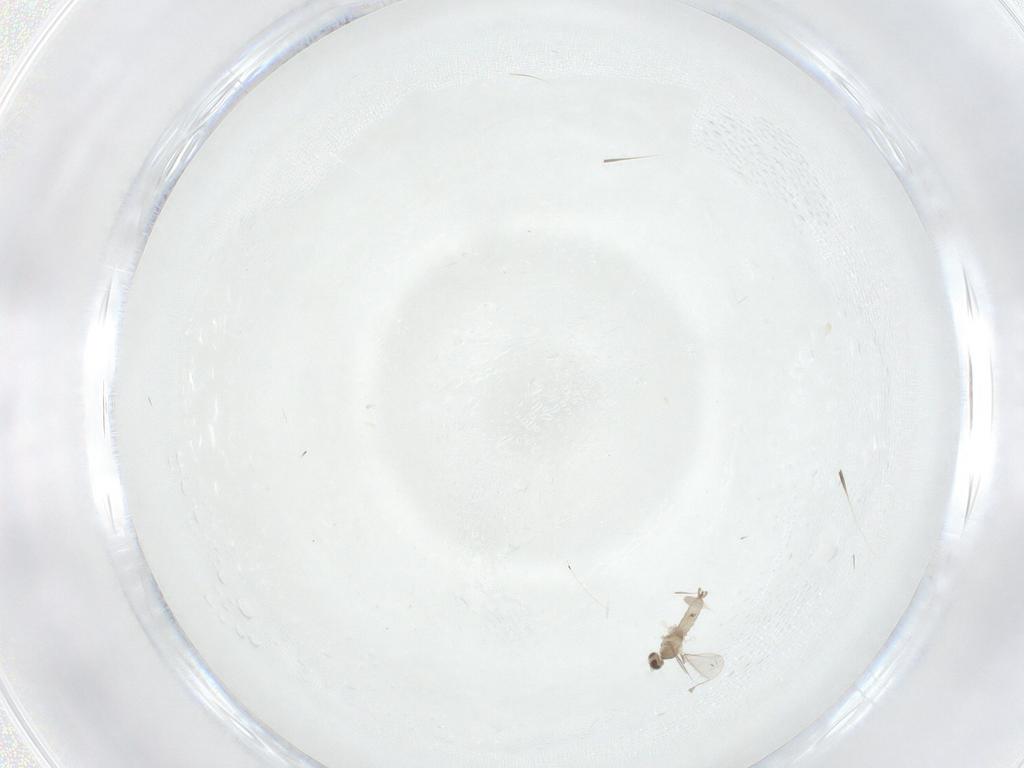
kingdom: Animalia
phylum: Arthropoda
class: Insecta
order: Diptera
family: Cecidomyiidae
